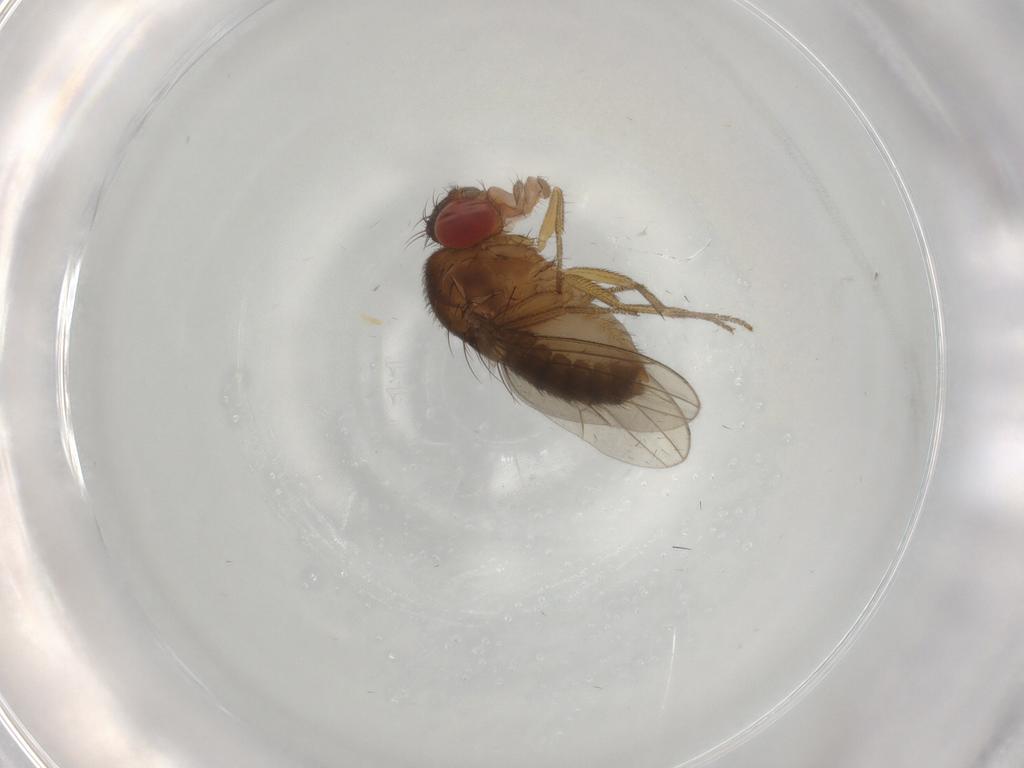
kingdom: Animalia
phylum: Arthropoda
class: Insecta
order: Diptera
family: Drosophilidae
